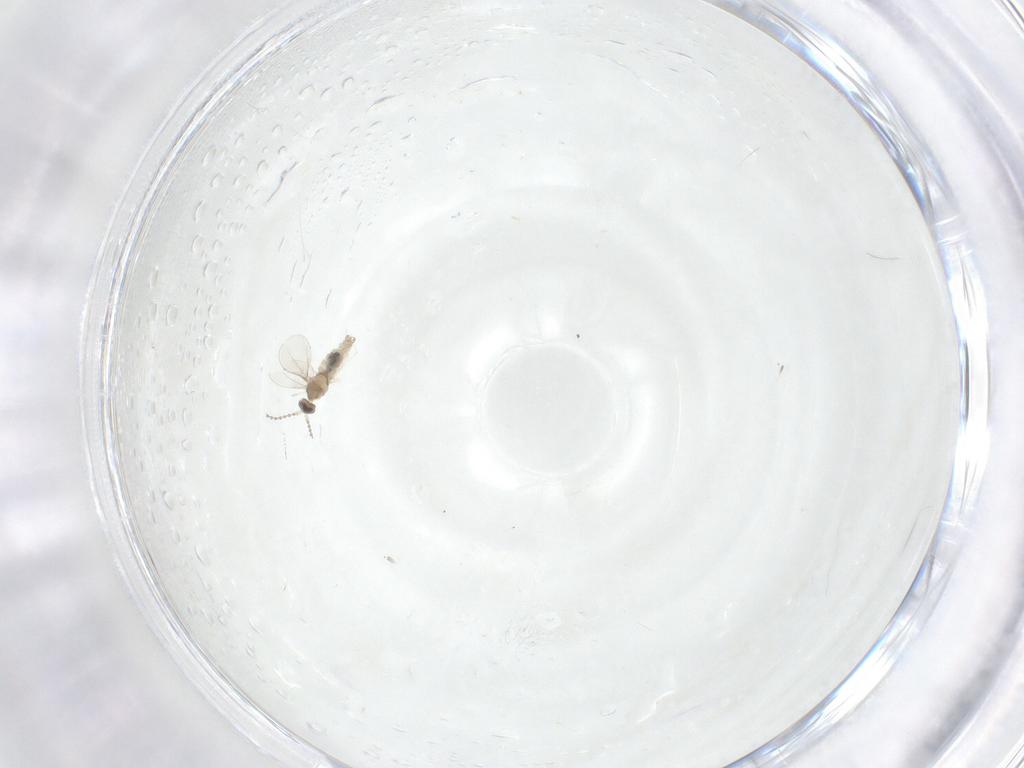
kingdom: Animalia
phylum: Arthropoda
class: Insecta
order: Diptera
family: Cecidomyiidae
